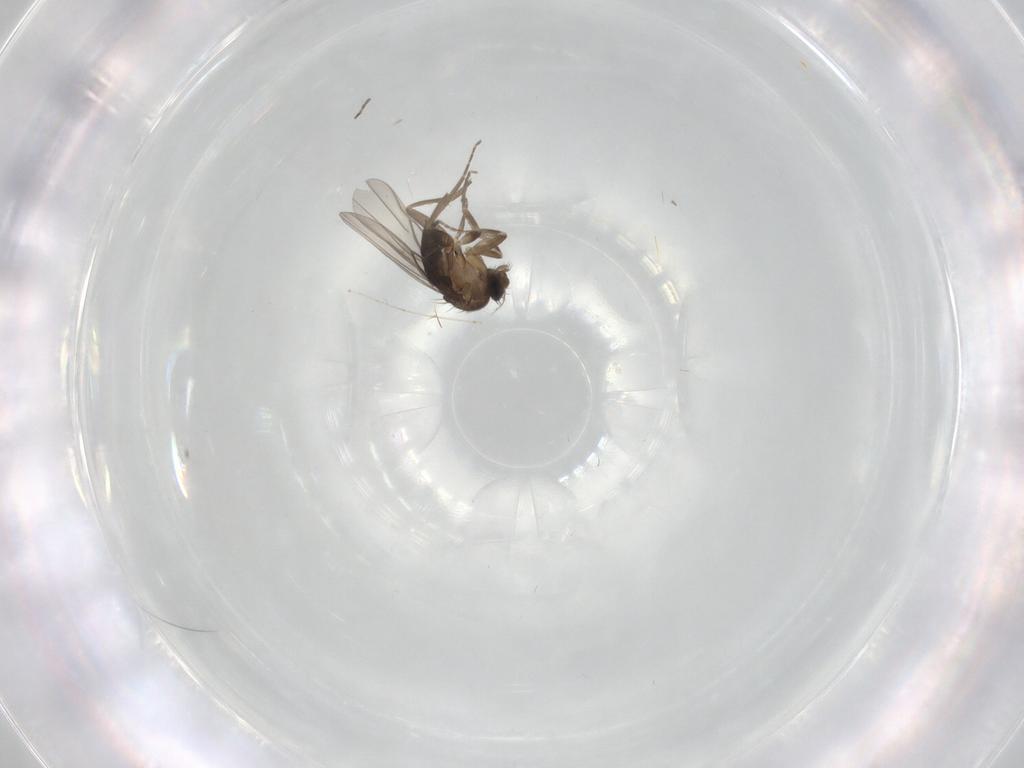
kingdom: Animalia
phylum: Arthropoda
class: Insecta
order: Diptera
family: Phoridae
